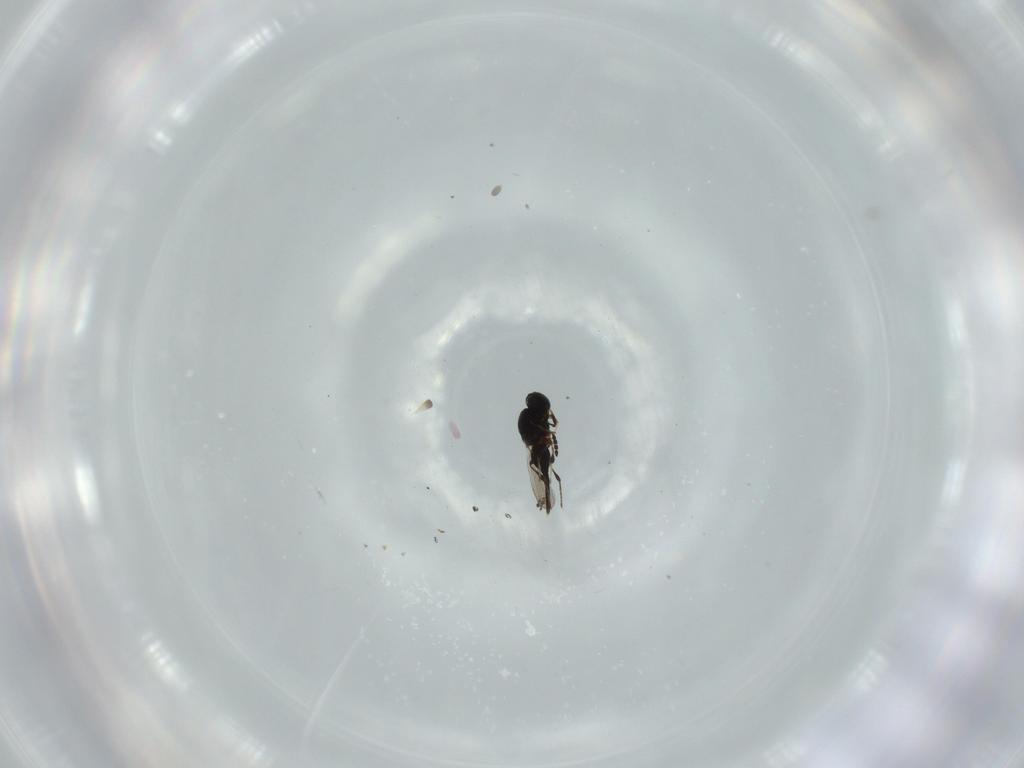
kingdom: Animalia
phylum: Arthropoda
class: Insecta
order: Hymenoptera
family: Platygastridae
